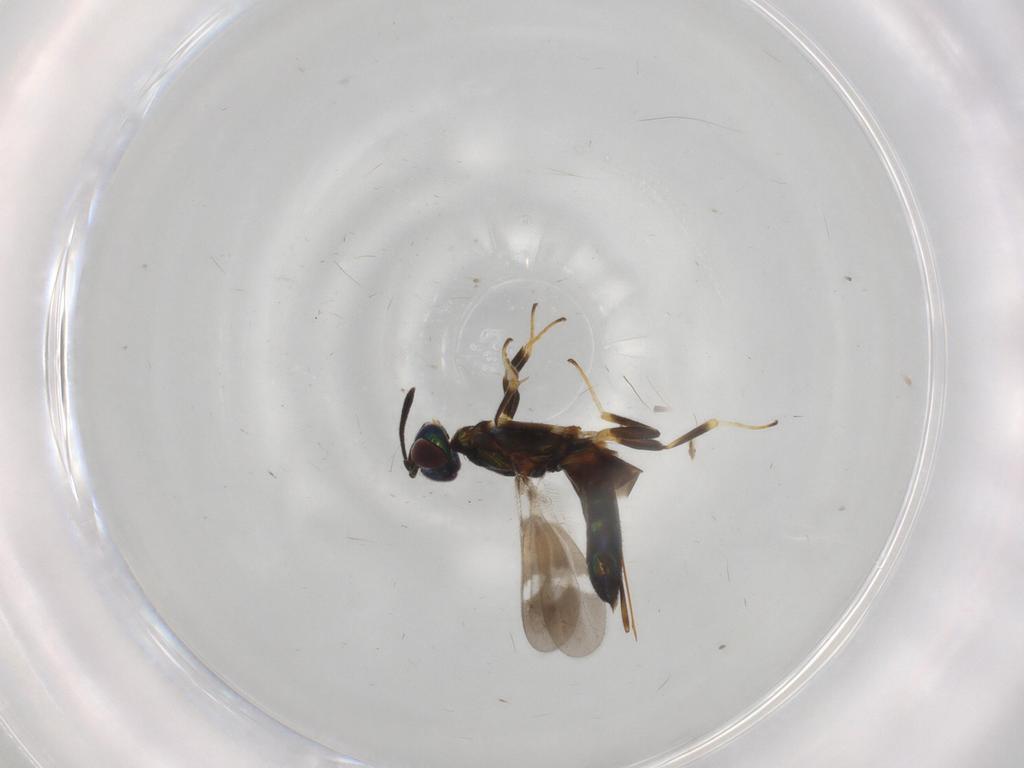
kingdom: Animalia
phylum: Arthropoda
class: Insecta
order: Hymenoptera
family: Eupelmidae
